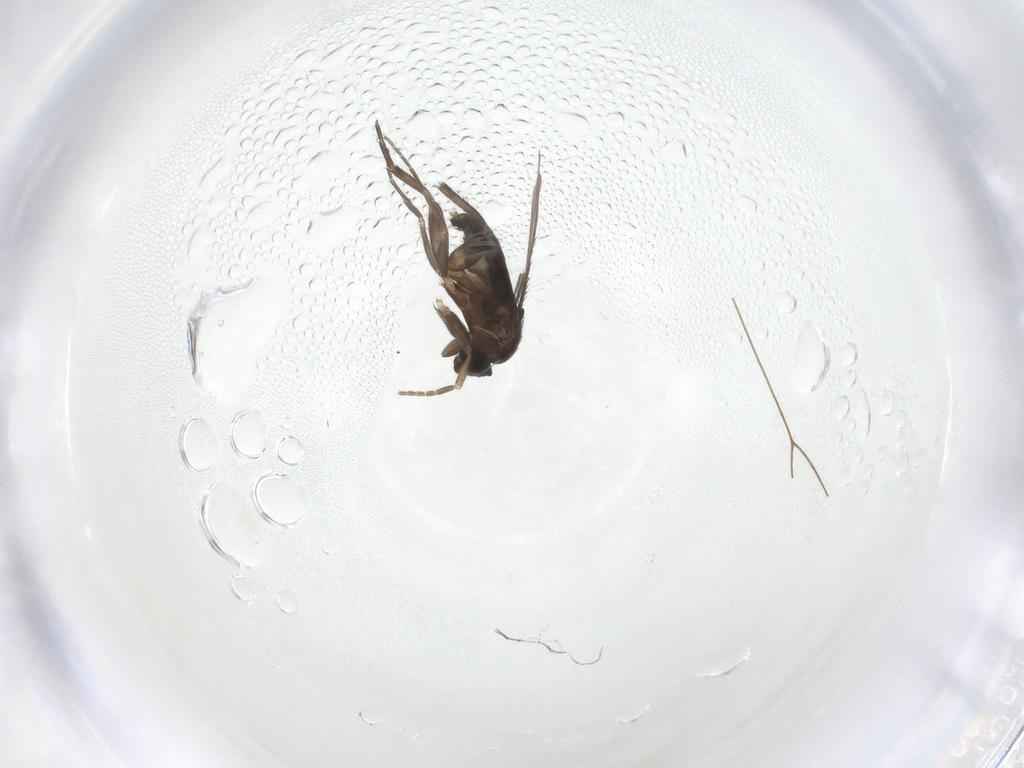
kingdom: Animalia
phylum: Arthropoda
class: Insecta
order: Diptera
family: Phoridae
